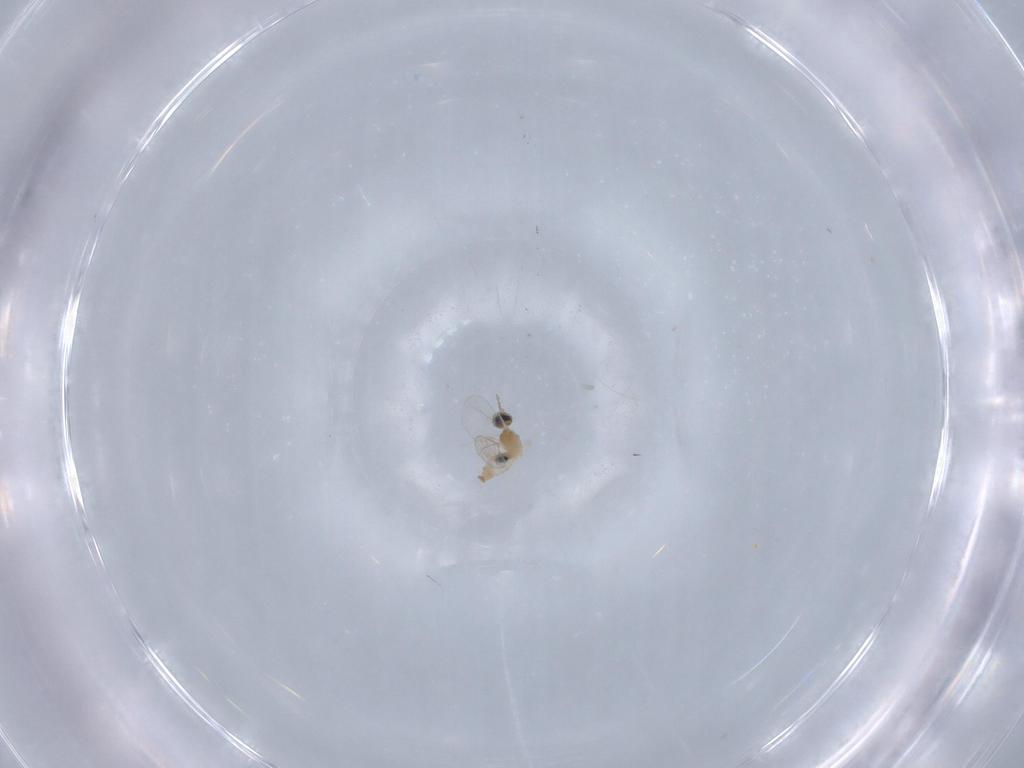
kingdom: Animalia
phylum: Arthropoda
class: Insecta
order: Diptera
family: Cecidomyiidae
